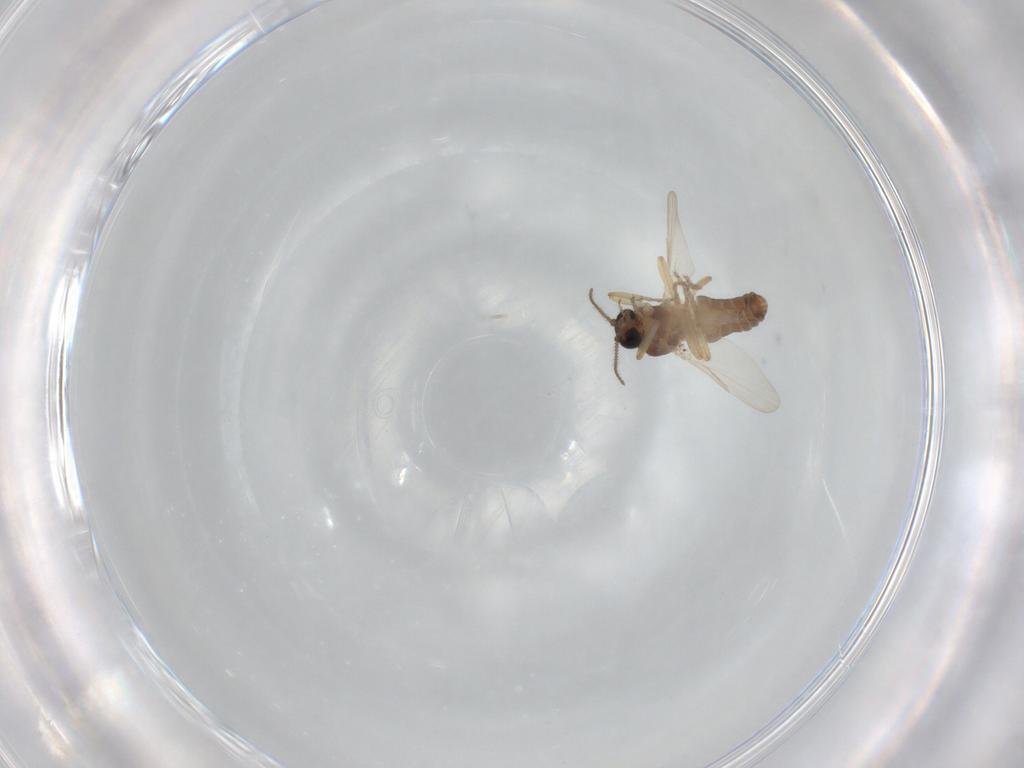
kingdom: Animalia
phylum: Arthropoda
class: Insecta
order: Diptera
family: Ceratopogonidae
